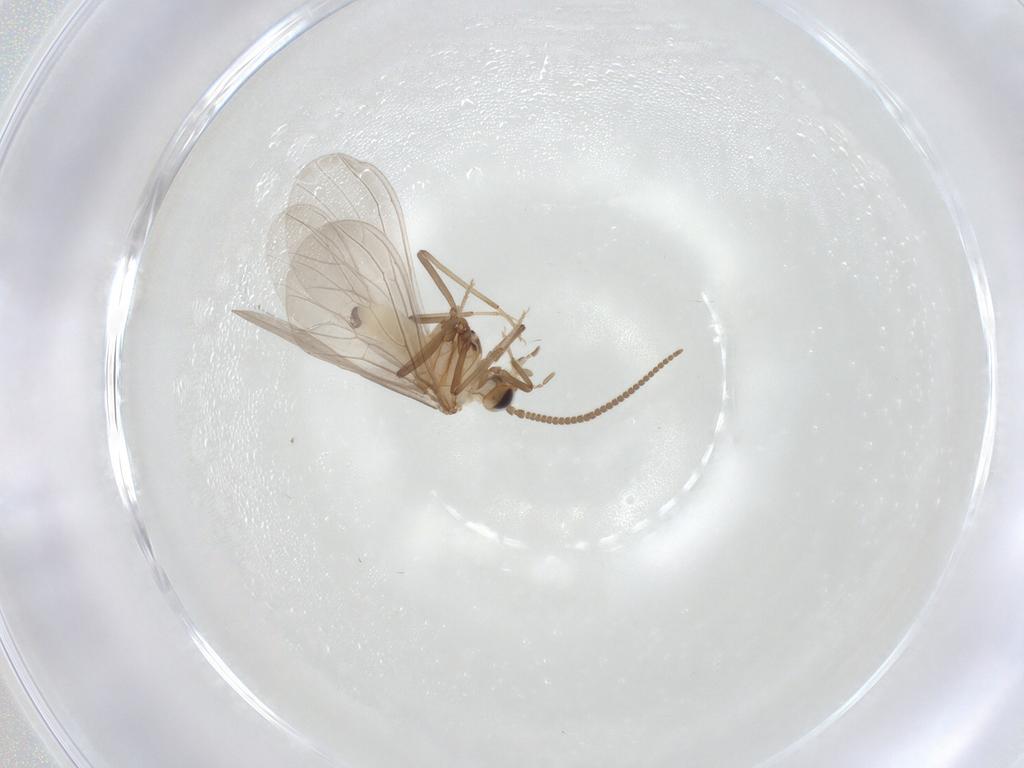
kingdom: Animalia
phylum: Arthropoda
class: Insecta
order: Neuroptera
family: Coniopterygidae
